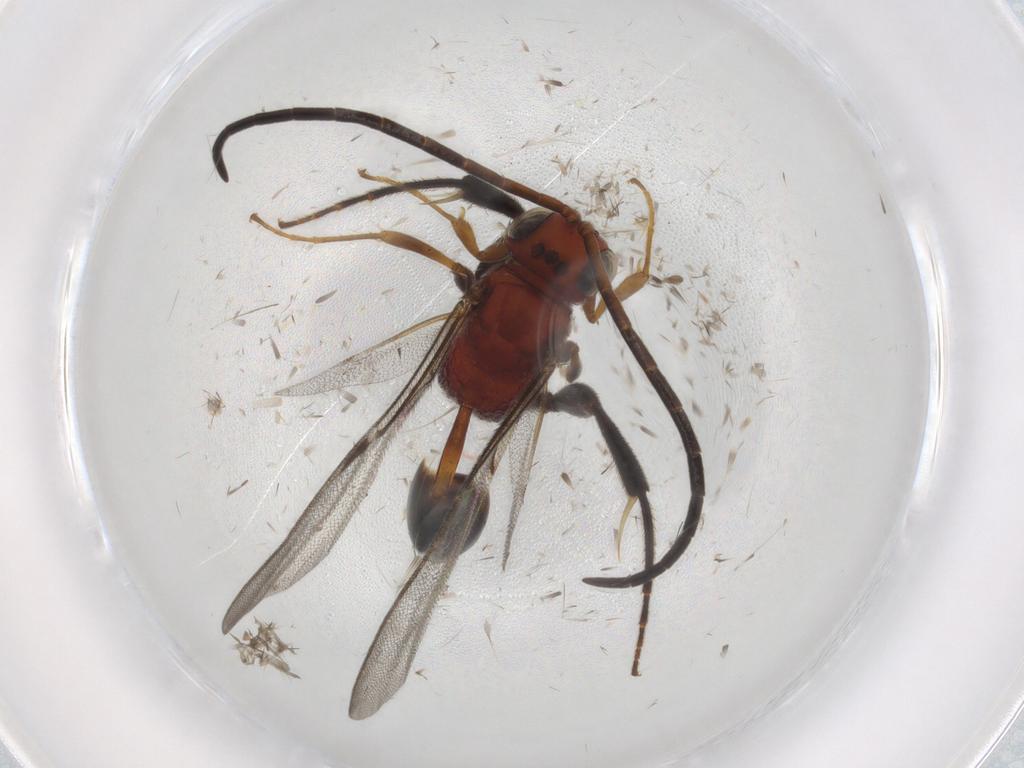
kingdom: Animalia
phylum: Arthropoda
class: Insecta
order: Hymenoptera
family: Evaniidae
